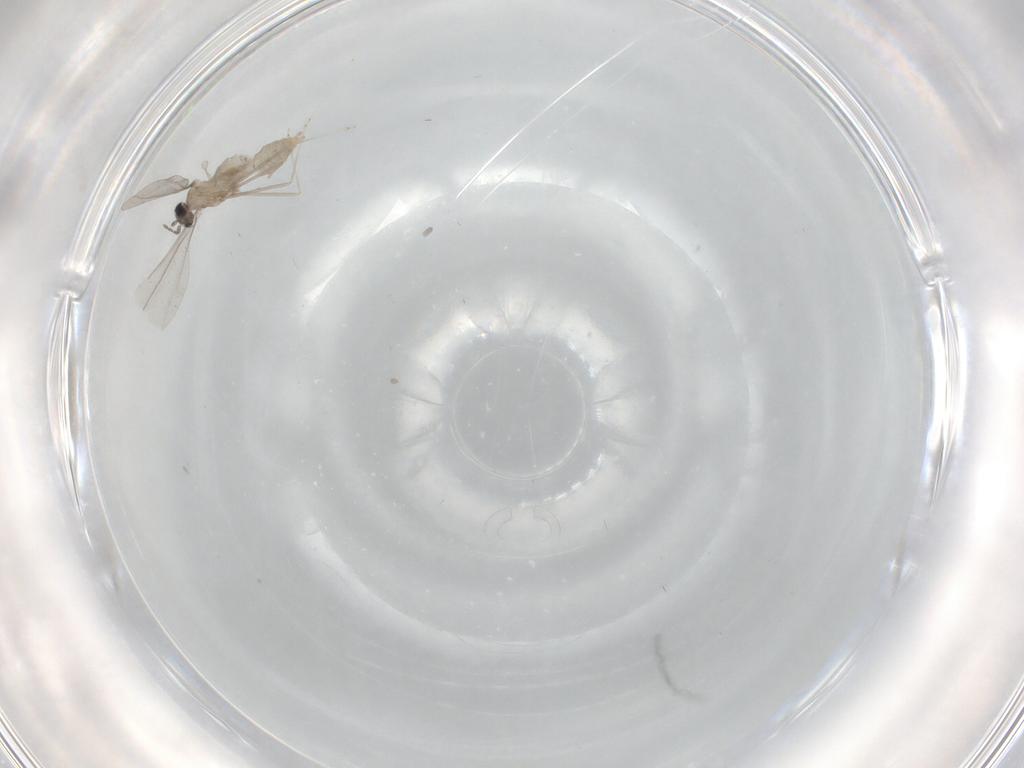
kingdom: Animalia
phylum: Arthropoda
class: Insecta
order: Diptera
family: Cecidomyiidae
